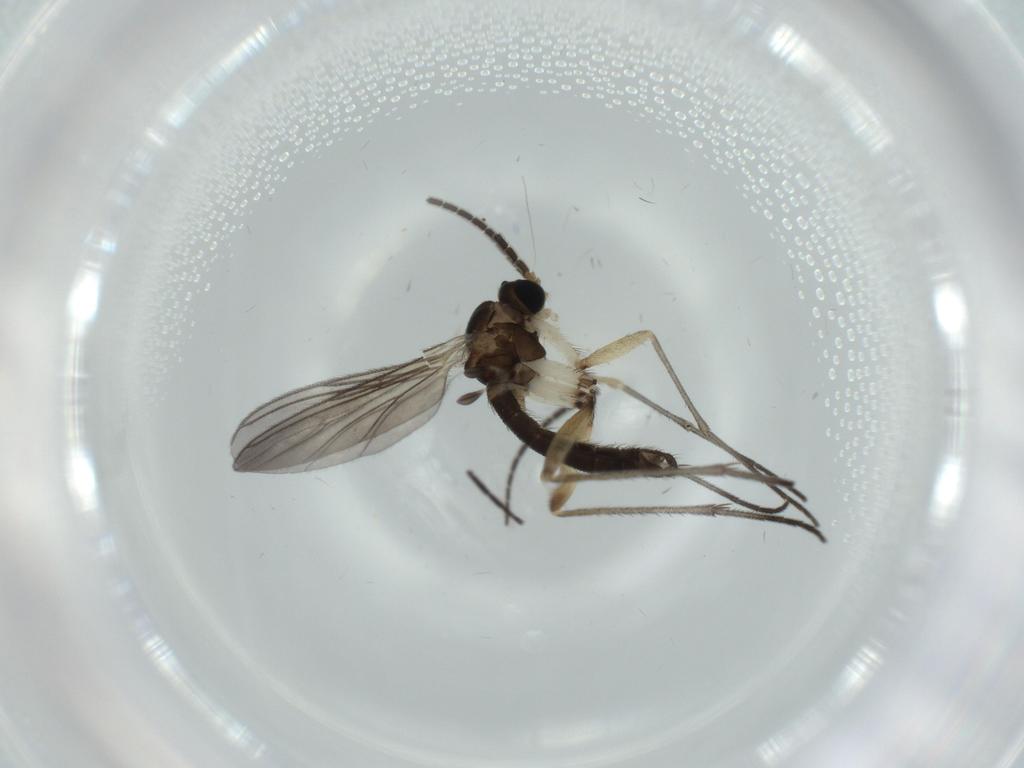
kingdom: Animalia
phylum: Arthropoda
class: Insecta
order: Diptera
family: Sciaridae
